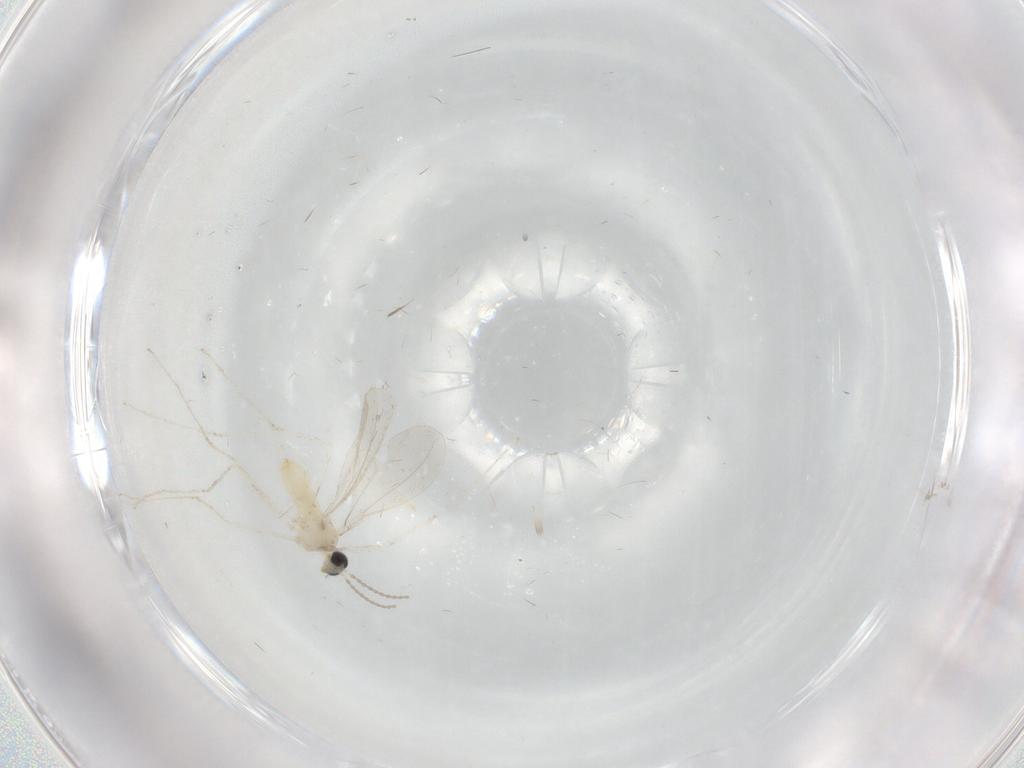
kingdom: Animalia
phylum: Arthropoda
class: Insecta
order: Diptera
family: Cecidomyiidae
